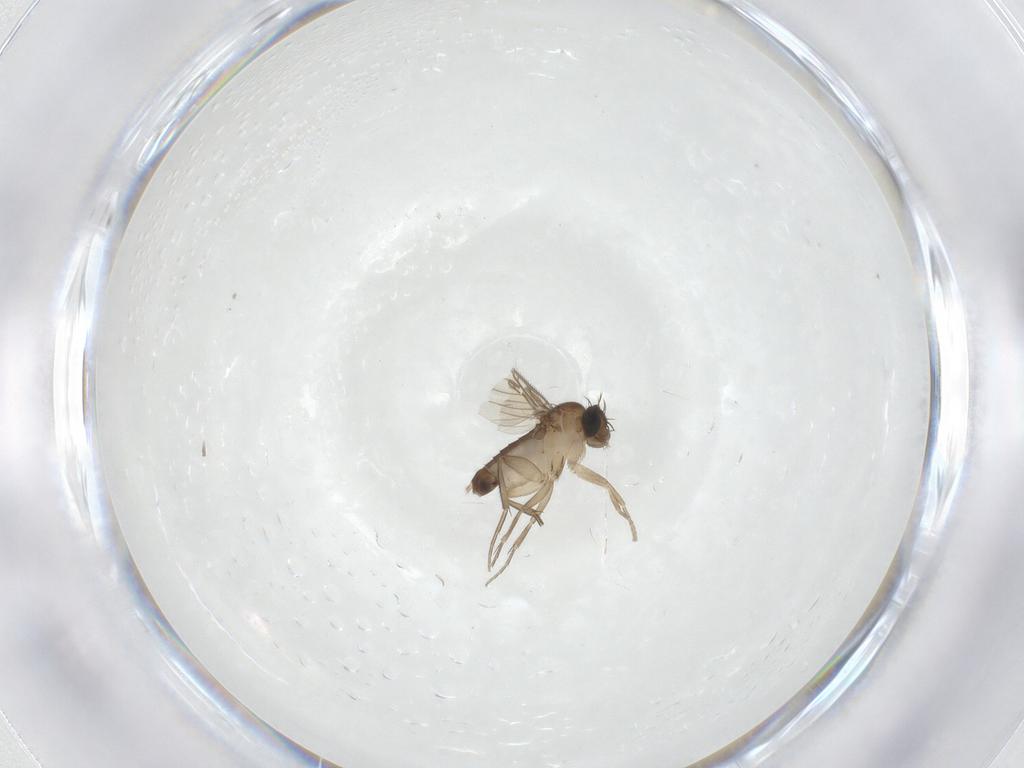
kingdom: Animalia
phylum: Arthropoda
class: Insecta
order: Diptera
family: Phoridae
